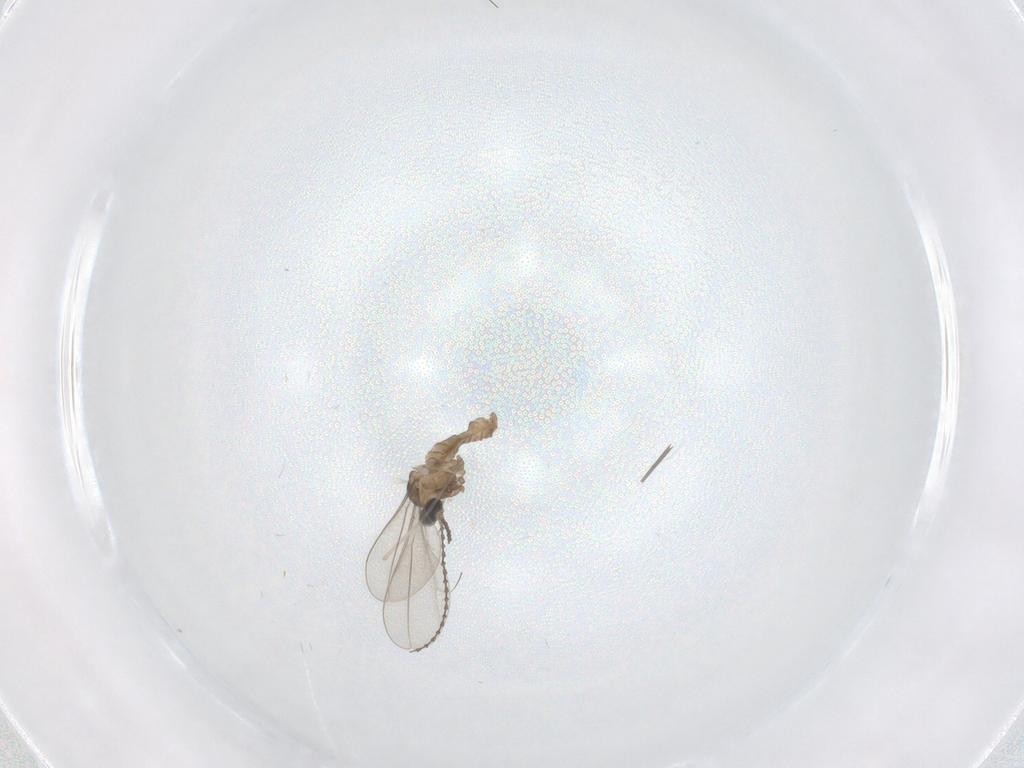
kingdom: Animalia
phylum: Arthropoda
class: Insecta
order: Diptera
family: Cecidomyiidae
